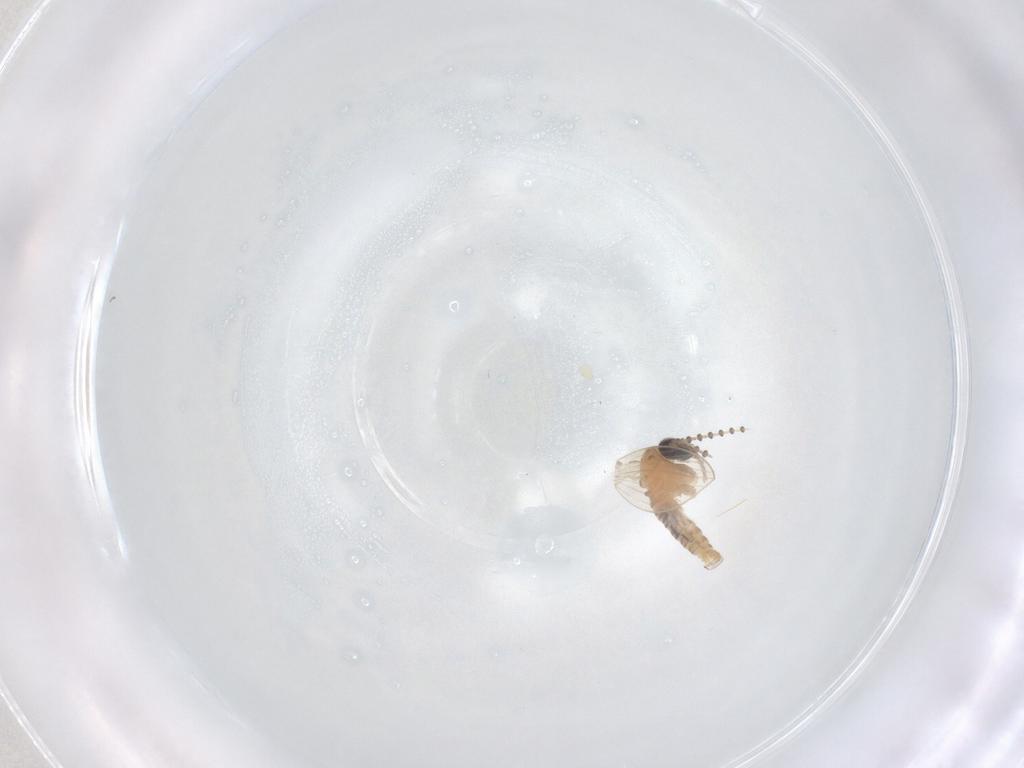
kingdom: Animalia
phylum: Arthropoda
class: Insecta
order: Diptera
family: Psychodidae
